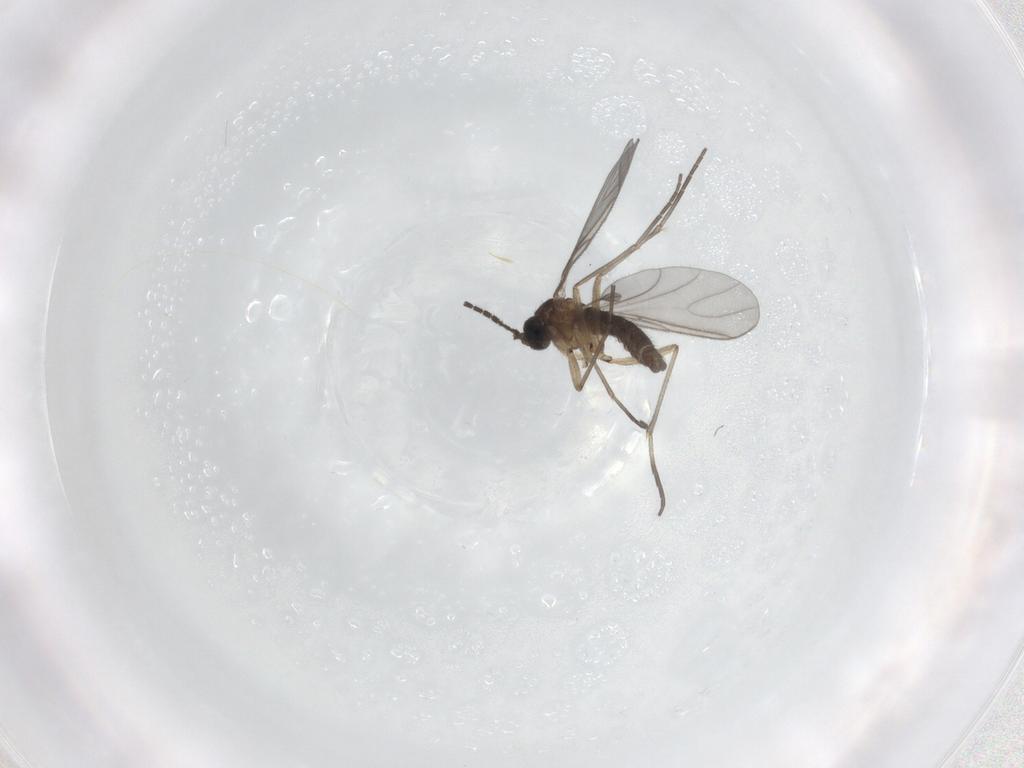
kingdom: Animalia
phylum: Arthropoda
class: Insecta
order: Diptera
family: Sciaridae
